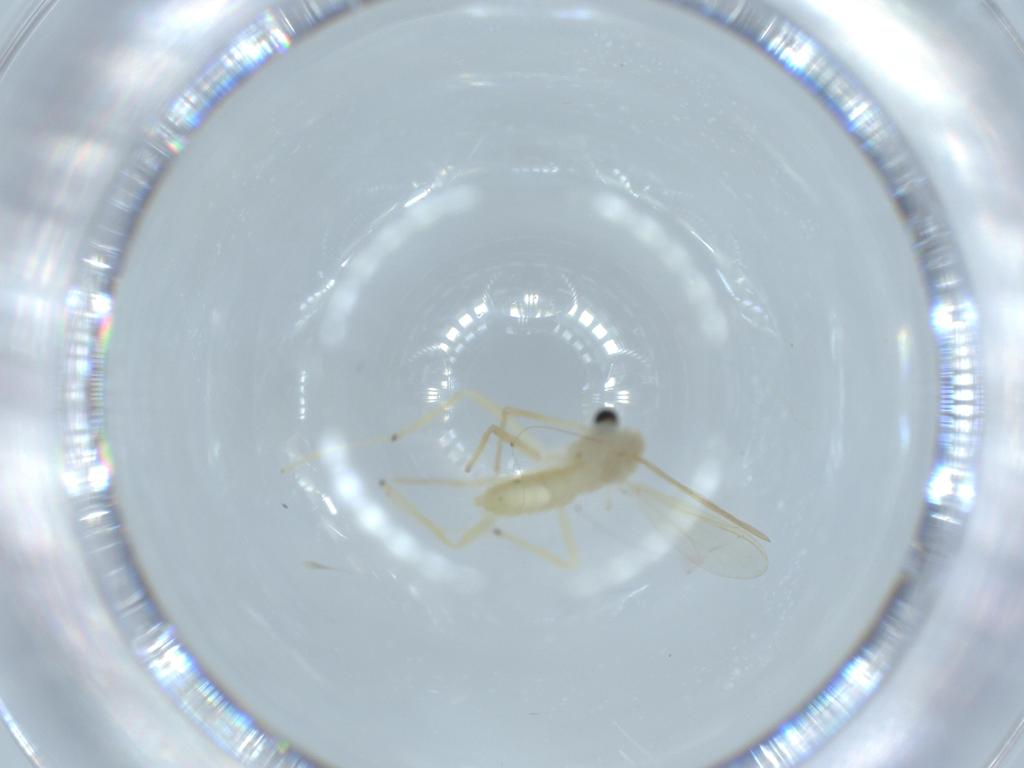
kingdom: Animalia
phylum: Arthropoda
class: Insecta
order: Diptera
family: Chironomidae
